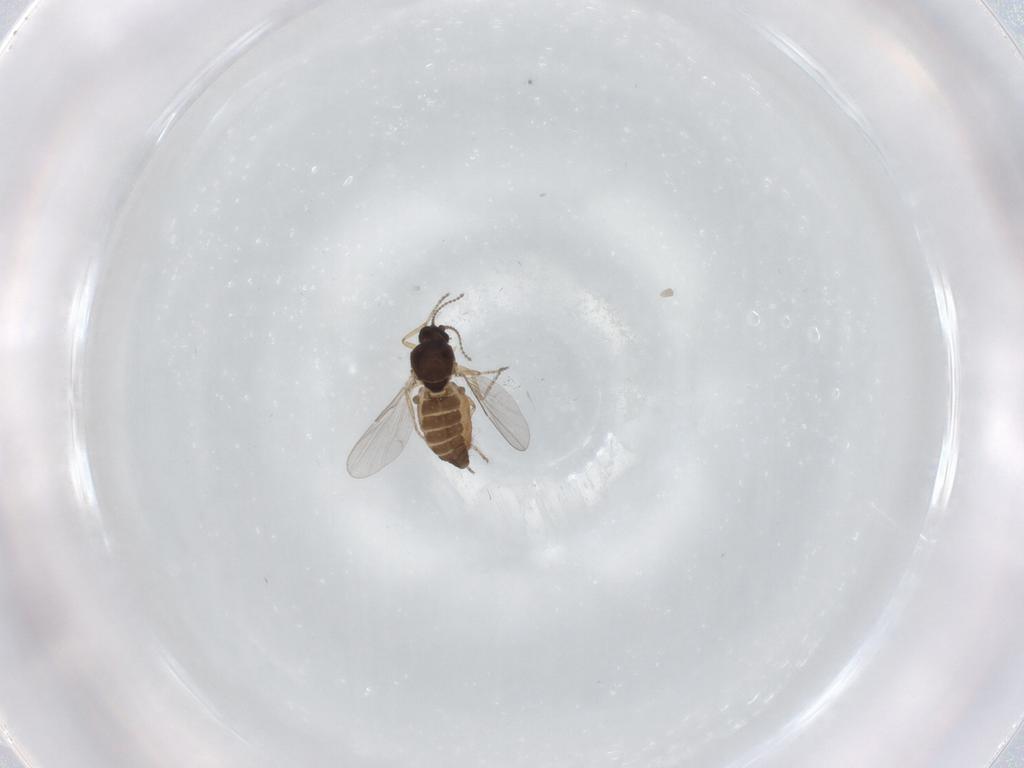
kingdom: Animalia
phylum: Arthropoda
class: Insecta
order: Diptera
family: Ceratopogonidae
